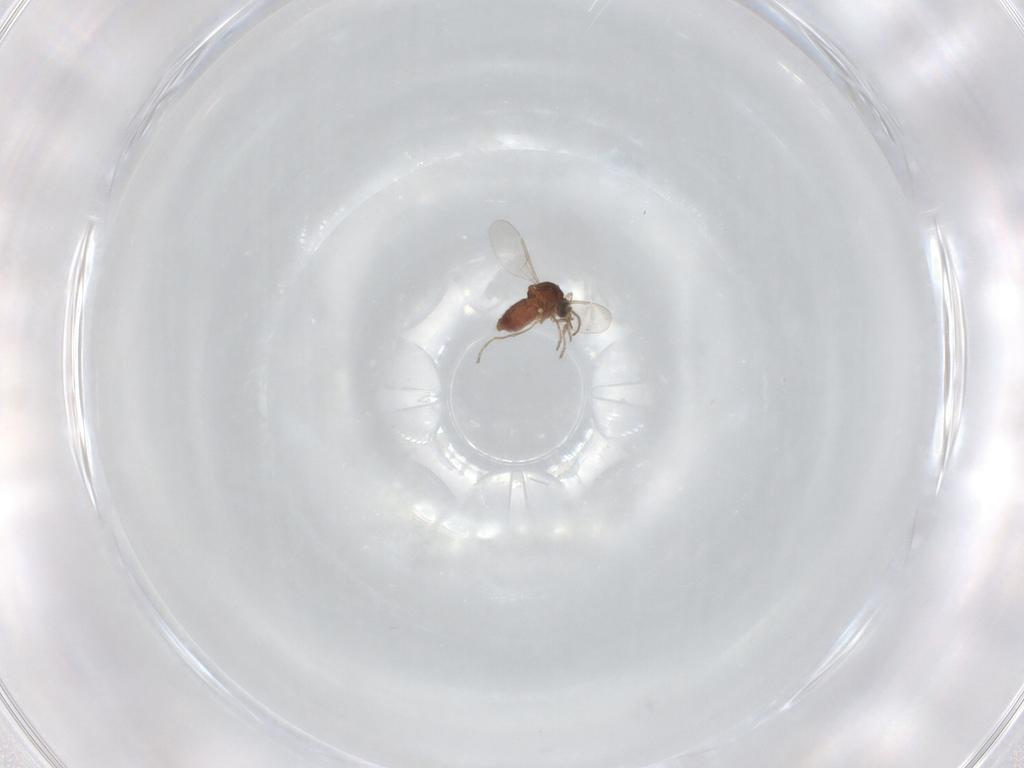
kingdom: Animalia
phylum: Arthropoda
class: Insecta
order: Diptera
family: Ceratopogonidae
